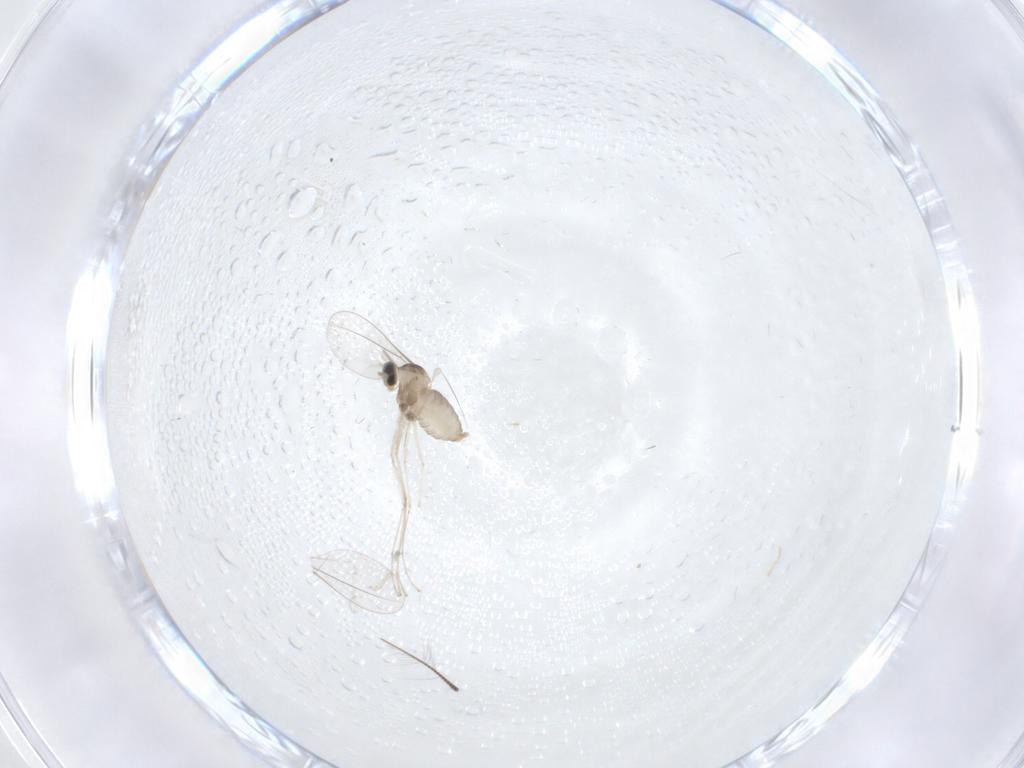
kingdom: Animalia
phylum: Arthropoda
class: Insecta
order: Diptera
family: Cecidomyiidae
